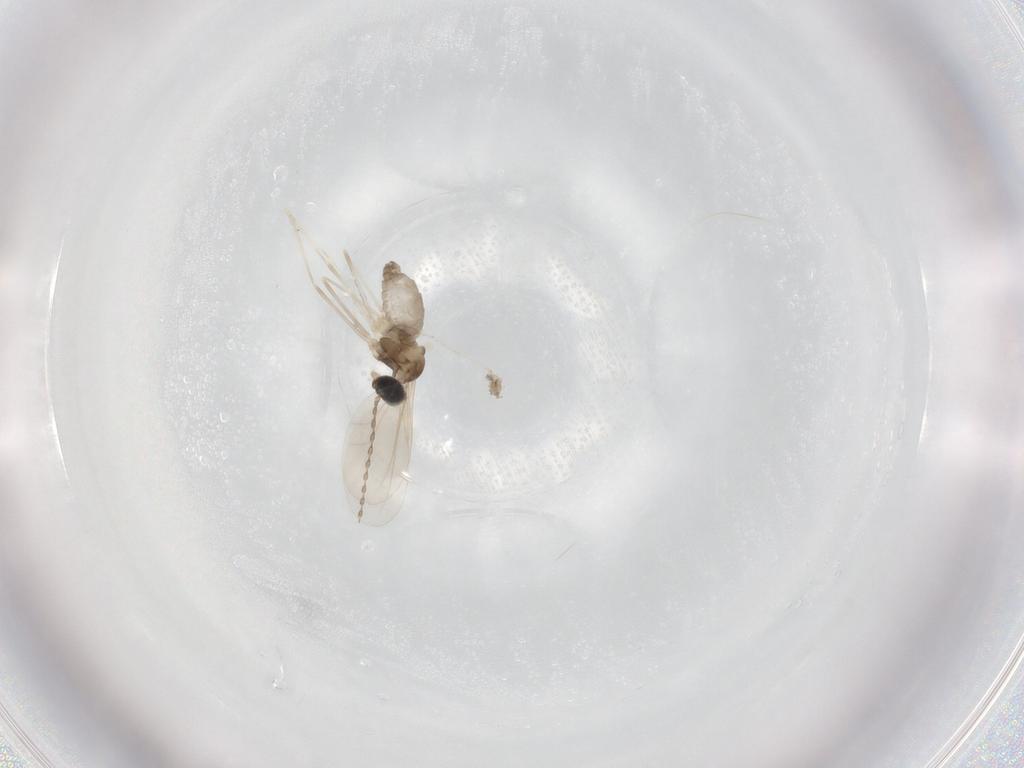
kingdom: Animalia
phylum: Arthropoda
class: Insecta
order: Diptera
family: Cecidomyiidae
